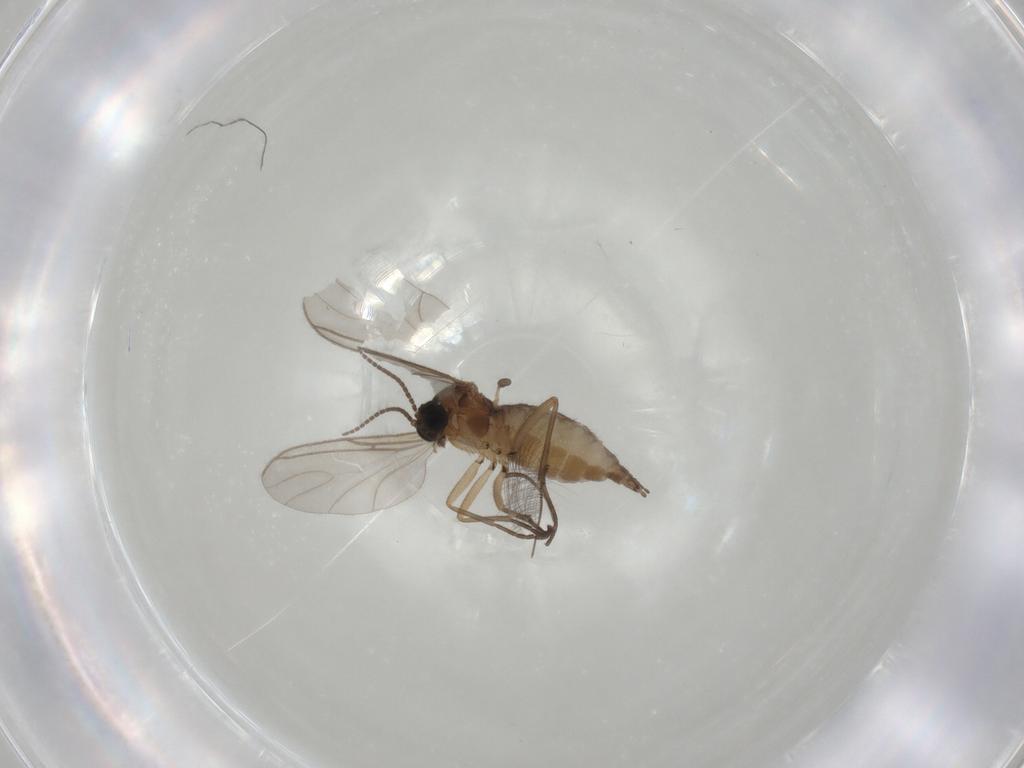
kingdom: Animalia
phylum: Arthropoda
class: Insecta
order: Diptera
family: Sciaridae
